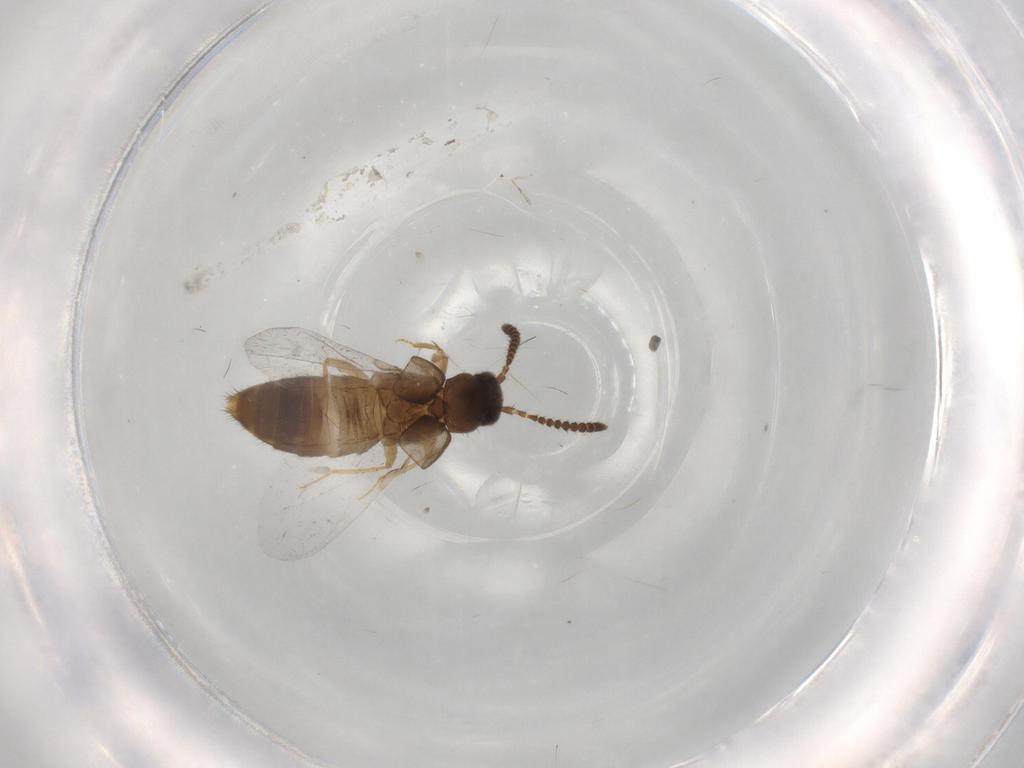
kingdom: Animalia
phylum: Arthropoda
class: Insecta
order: Coleoptera
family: Staphylinidae
